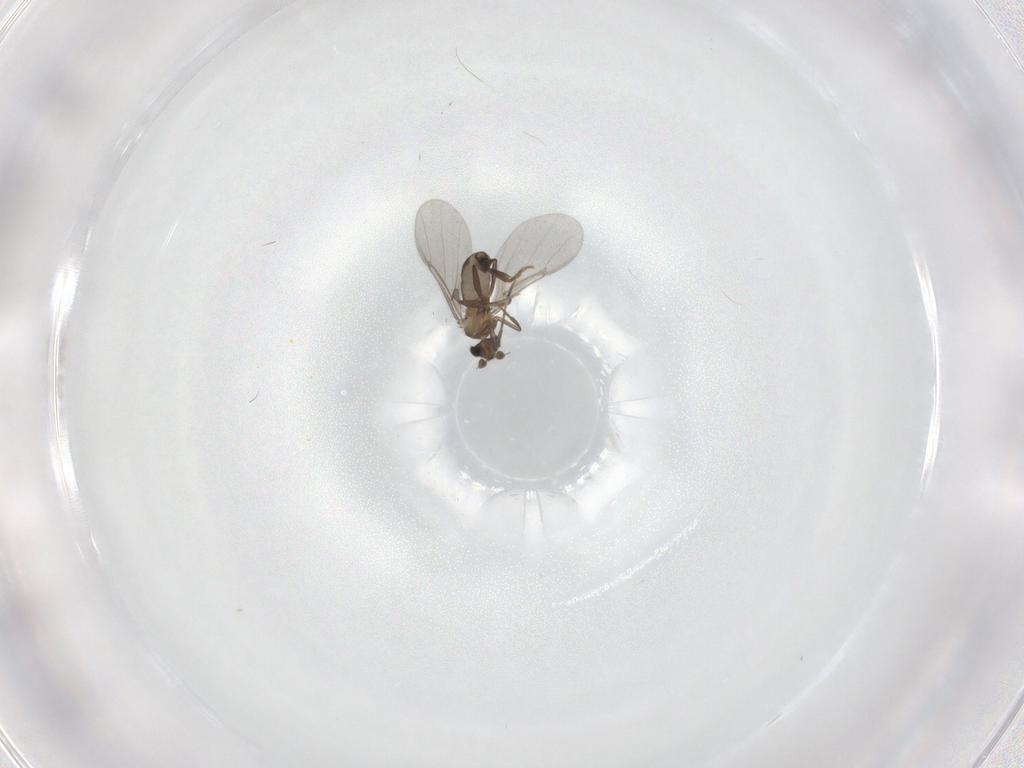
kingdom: Animalia
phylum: Arthropoda
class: Insecta
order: Diptera
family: Phoridae
